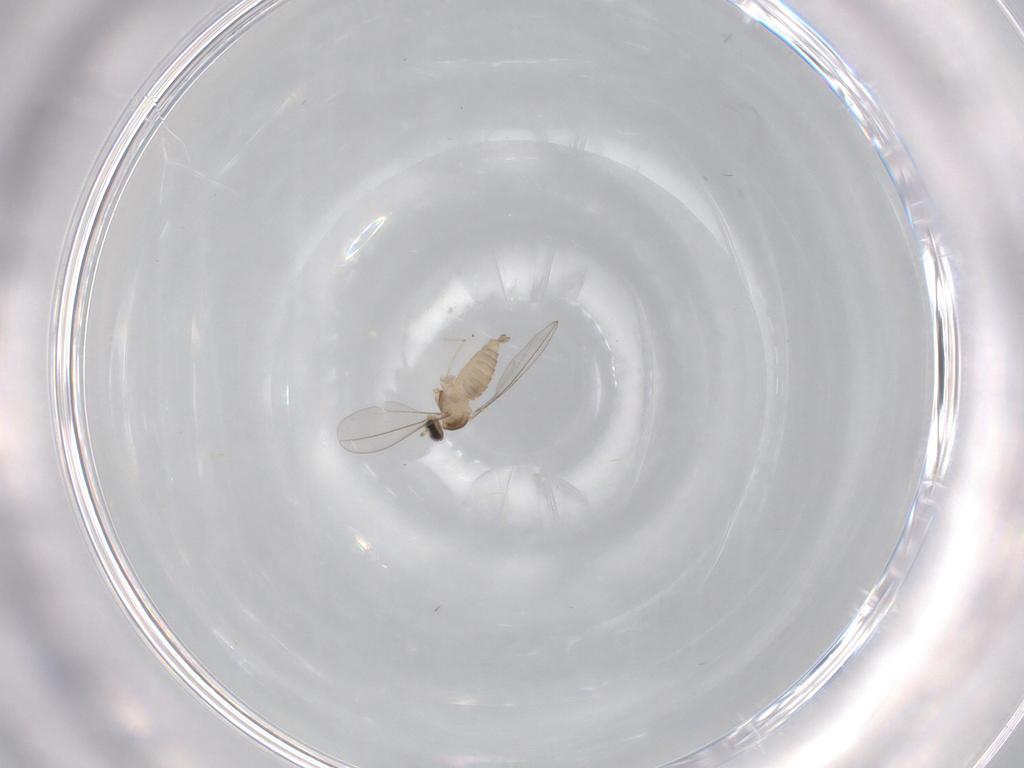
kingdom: Animalia
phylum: Arthropoda
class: Insecta
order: Diptera
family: Cecidomyiidae
